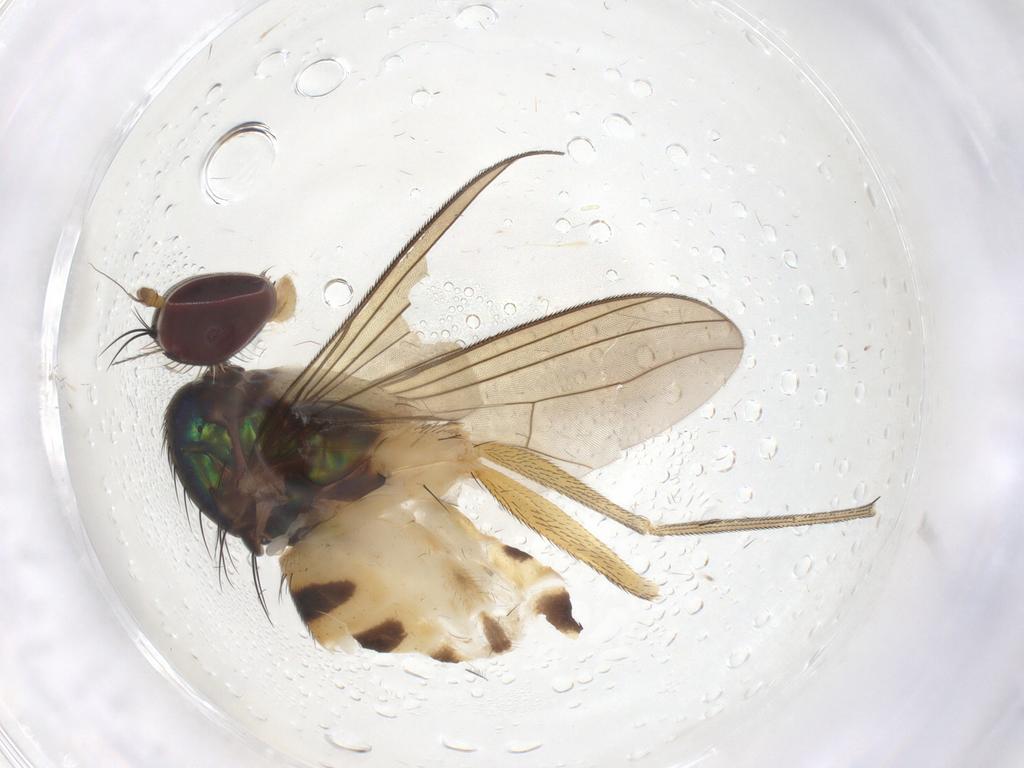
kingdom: Animalia
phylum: Arthropoda
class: Insecta
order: Diptera
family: Dolichopodidae
